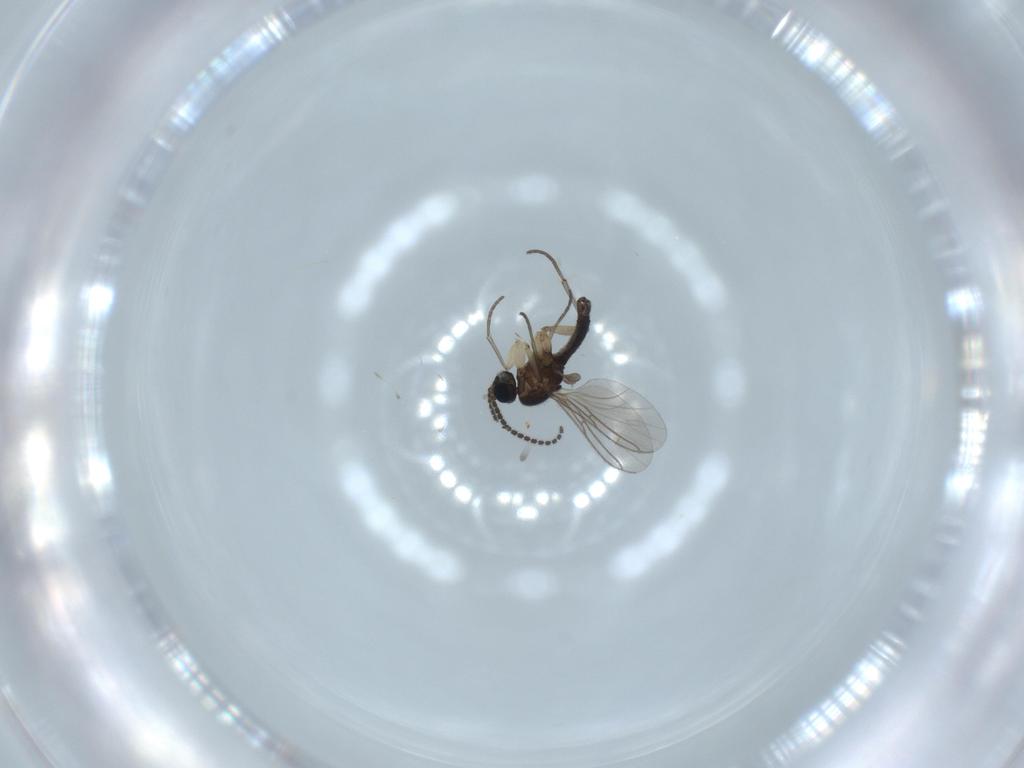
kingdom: Animalia
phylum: Arthropoda
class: Insecta
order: Diptera
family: Sciaridae
